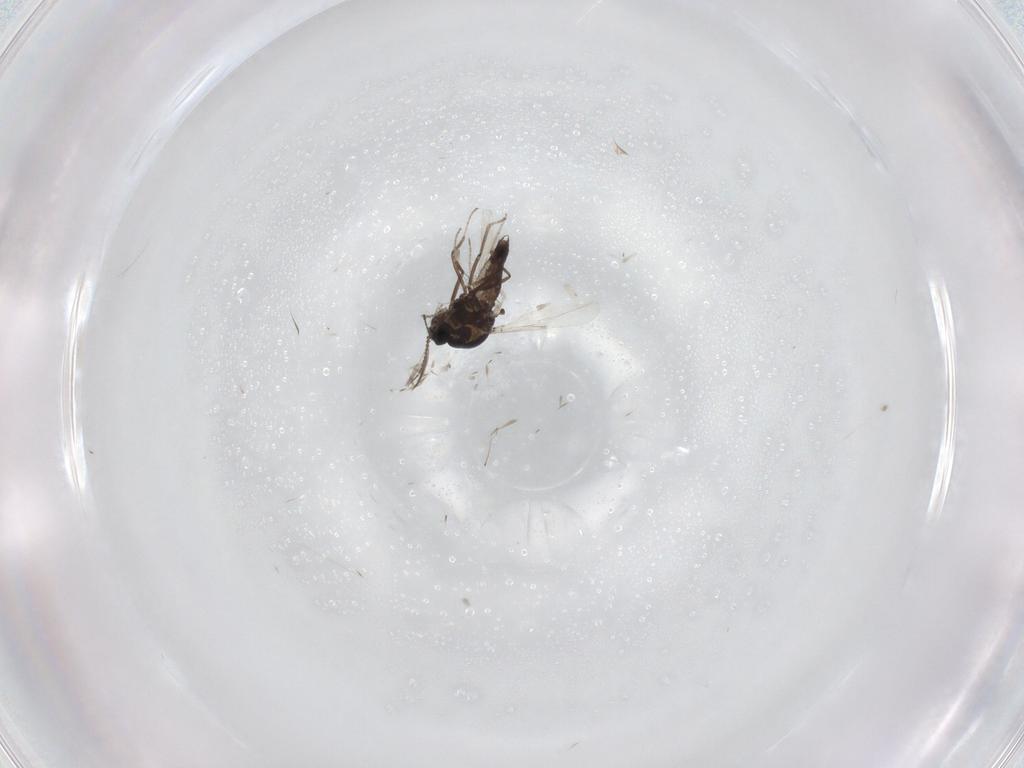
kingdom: Animalia
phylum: Arthropoda
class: Insecta
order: Diptera
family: Ceratopogonidae
